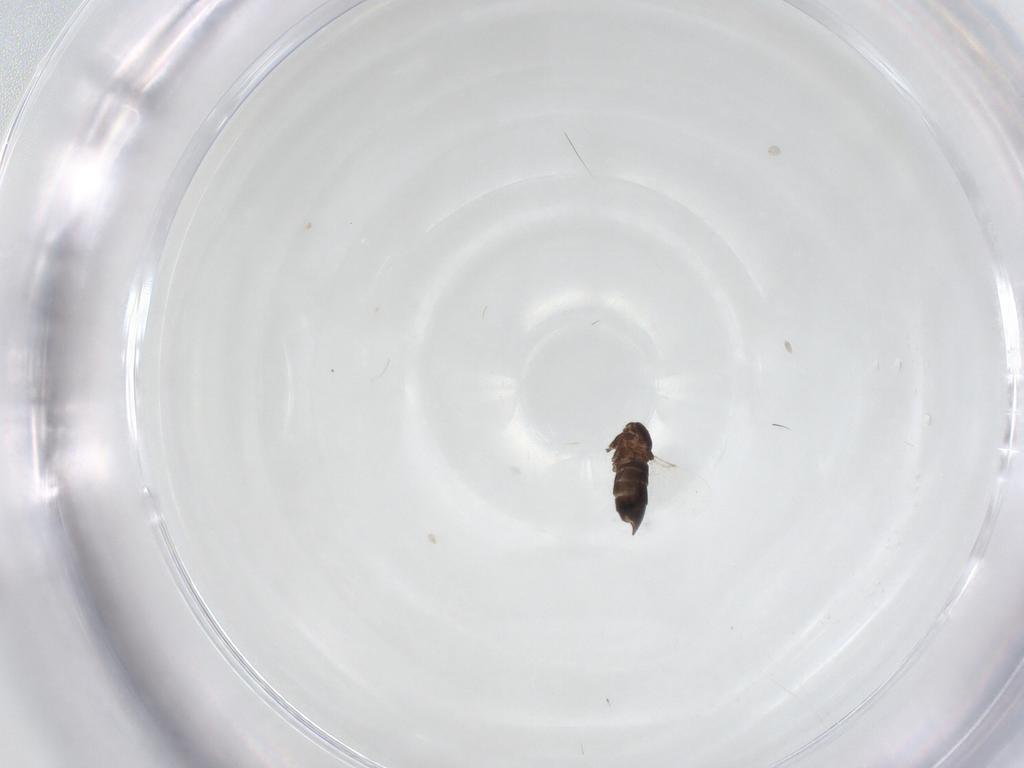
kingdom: Animalia
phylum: Arthropoda
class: Insecta
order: Diptera
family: Scatopsidae
